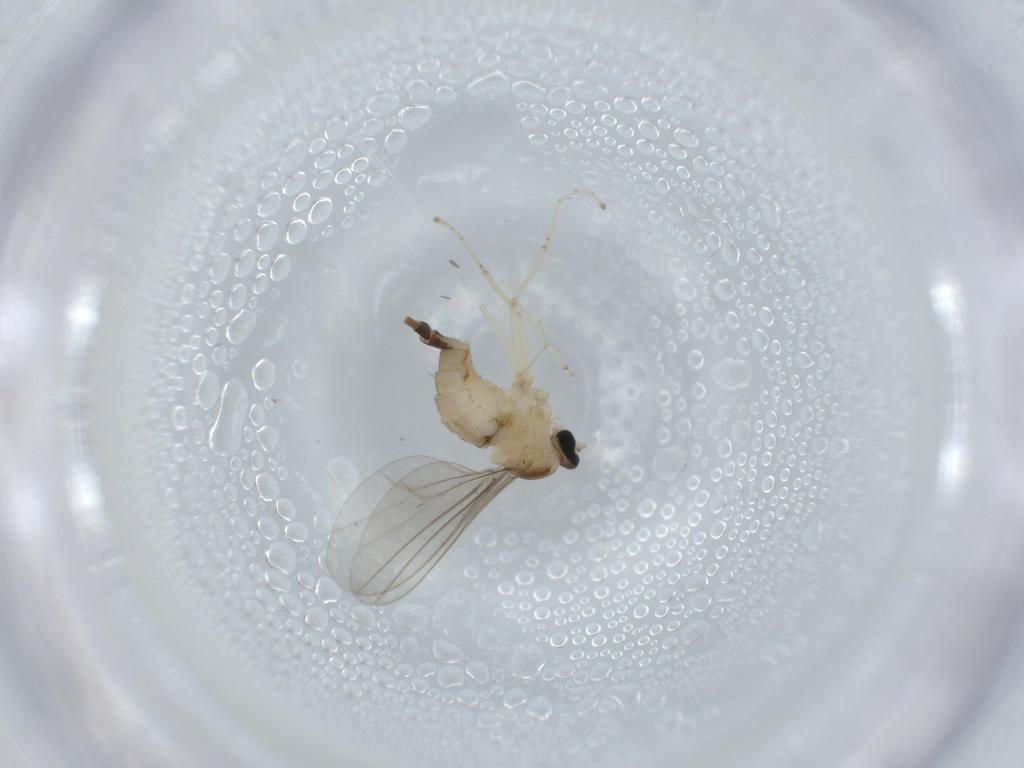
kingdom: Animalia
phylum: Arthropoda
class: Insecta
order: Diptera
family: Cecidomyiidae
